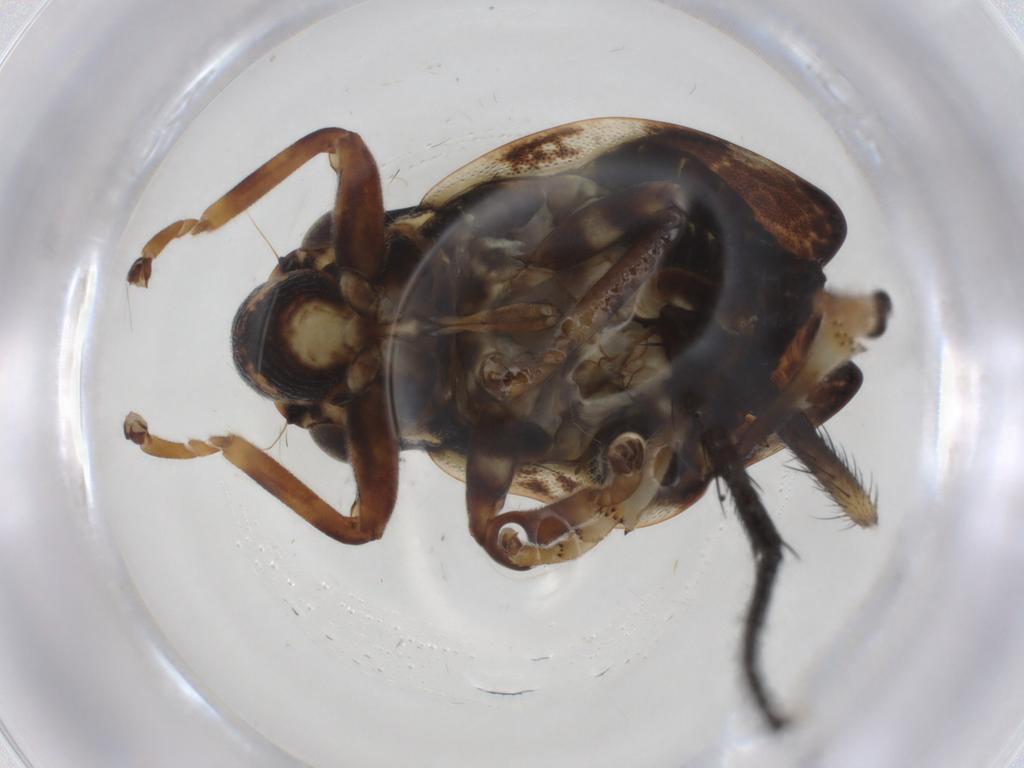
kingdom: Animalia
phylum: Arthropoda
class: Insecta
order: Hemiptera
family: Aphrophoridae
